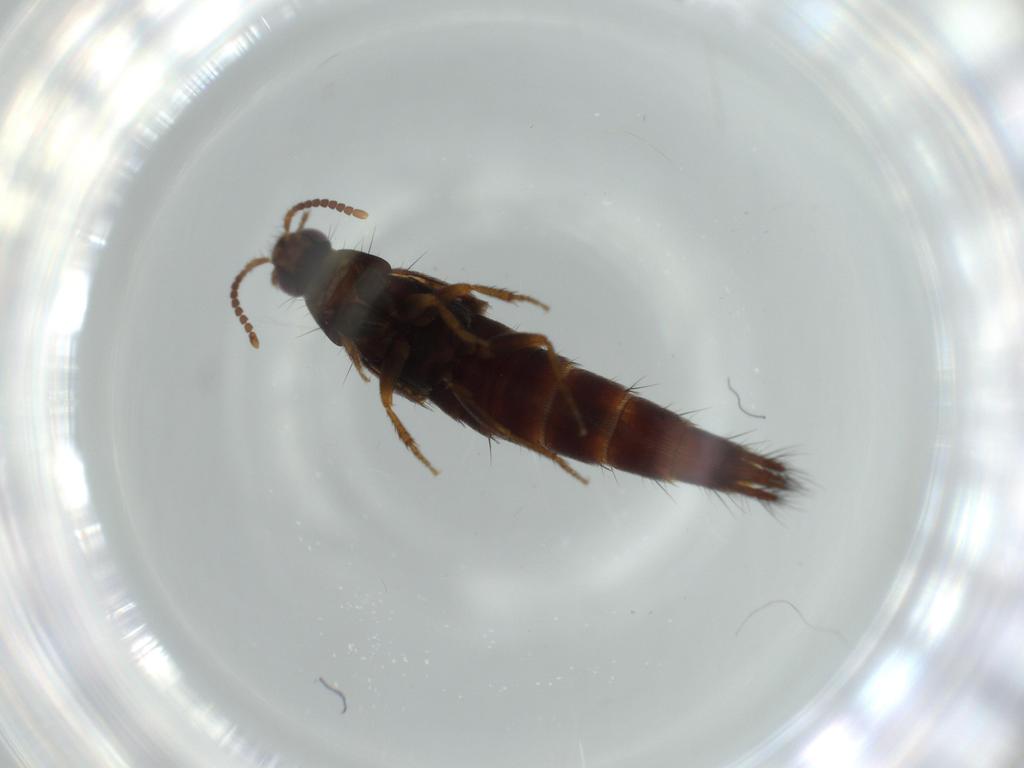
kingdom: Animalia
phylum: Arthropoda
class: Insecta
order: Coleoptera
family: Staphylinidae
